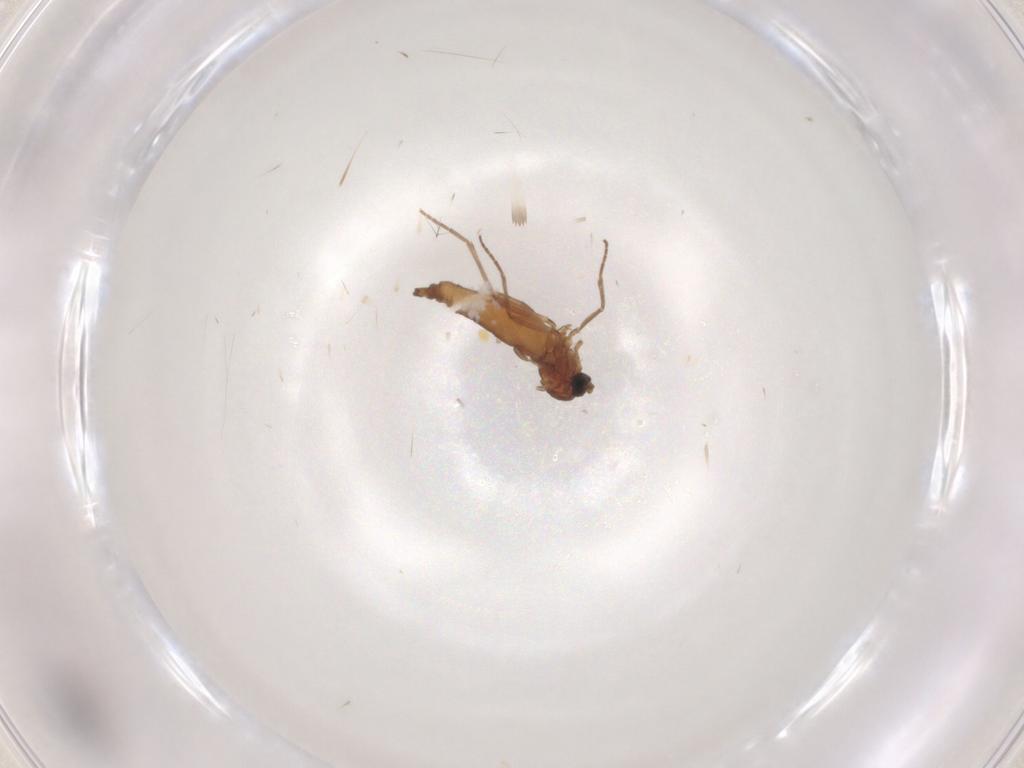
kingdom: Animalia
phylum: Arthropoda
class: Insecta
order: Diptera
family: Sciaridae
